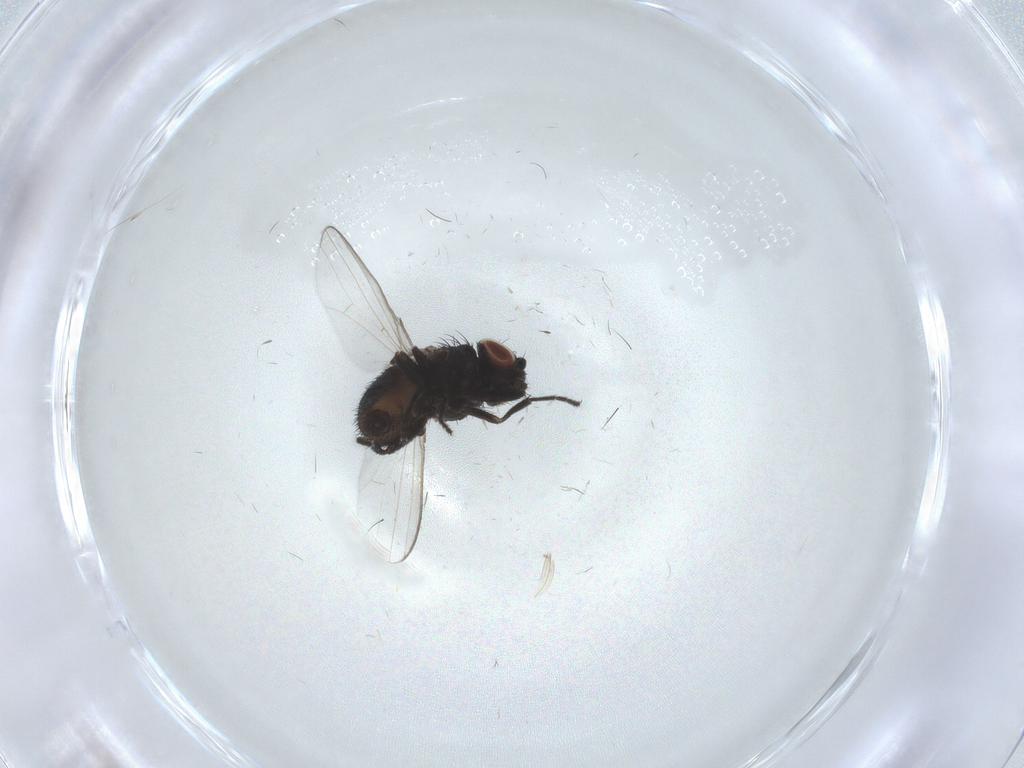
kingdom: Animalia
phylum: Arthropoda
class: Insecta
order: Diptera
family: Milichiidae
